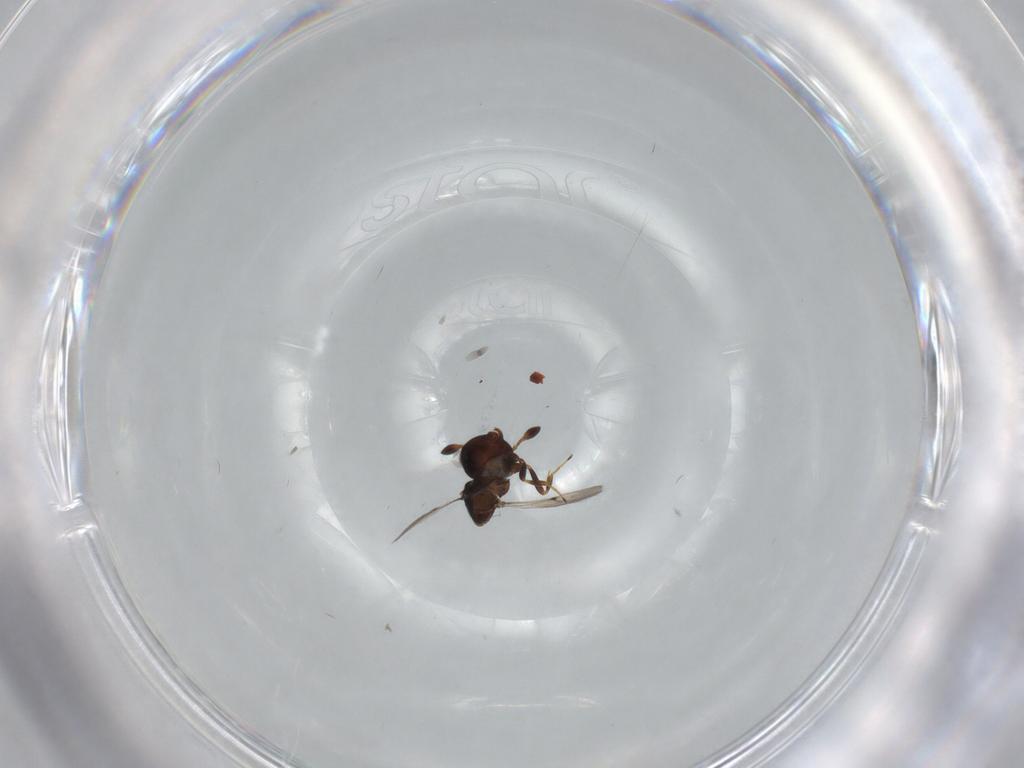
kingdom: Animalia
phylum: Arthropoda
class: Insecta
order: Hymenoptera
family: Scelionidae
